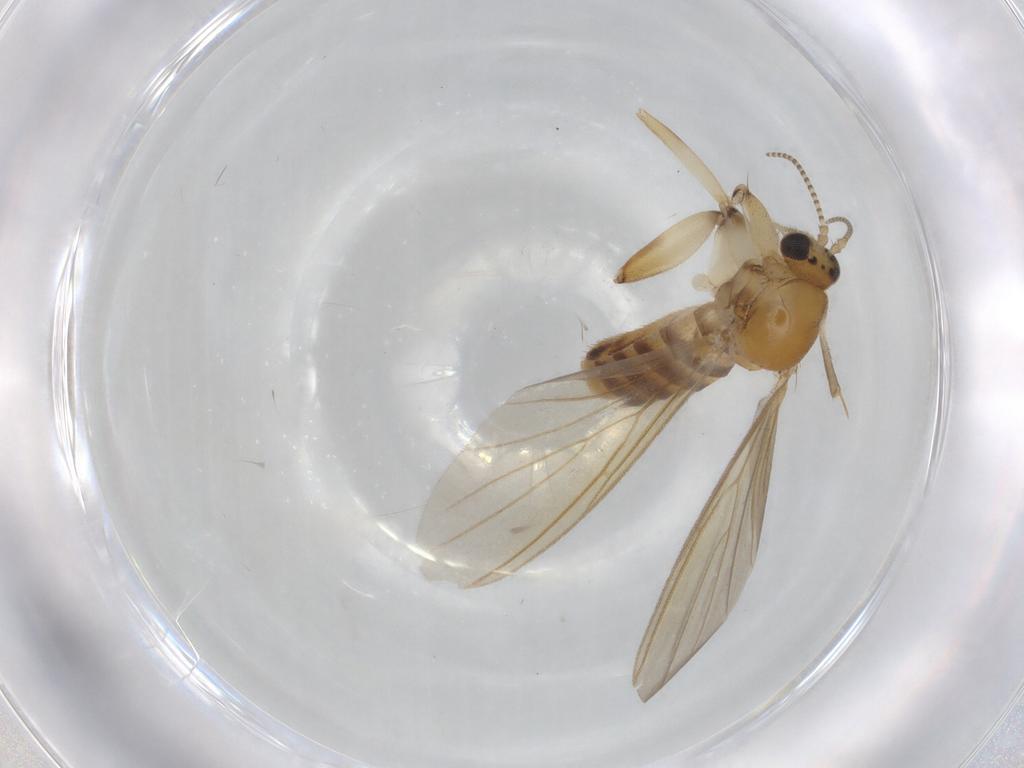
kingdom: Animalia
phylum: Arthropoda
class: Insecta
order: Diptera
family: Mycetophilidae
